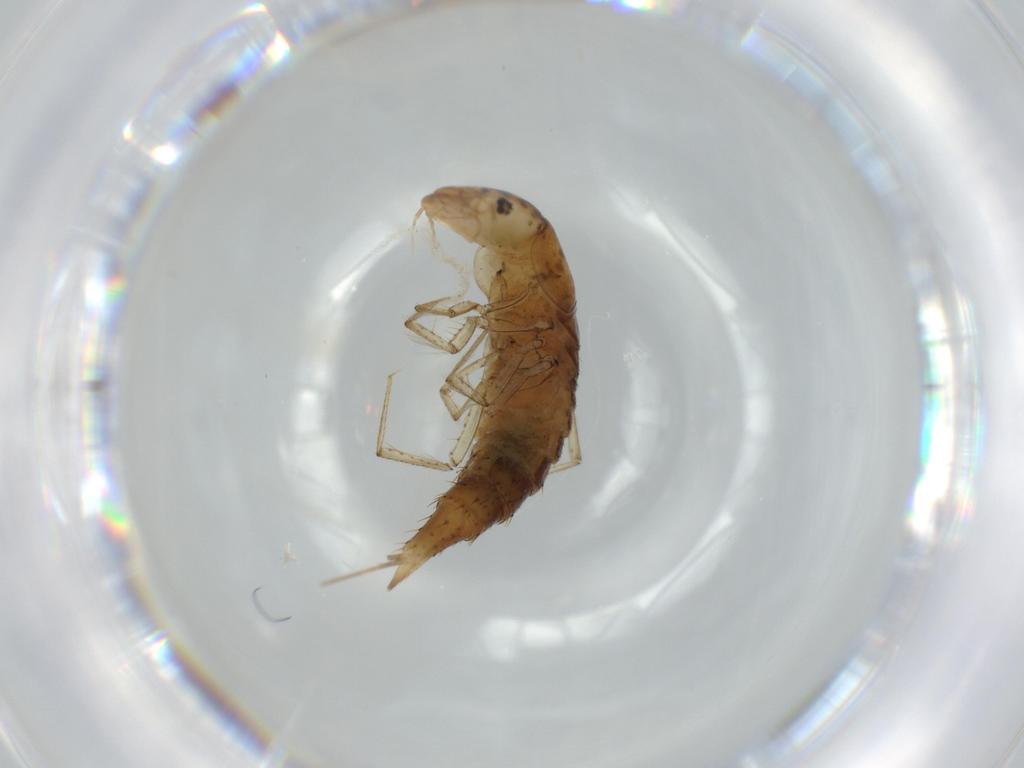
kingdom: Animalia
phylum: Arthropoda
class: Insecta
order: Coleoptera
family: Dytiscidae
